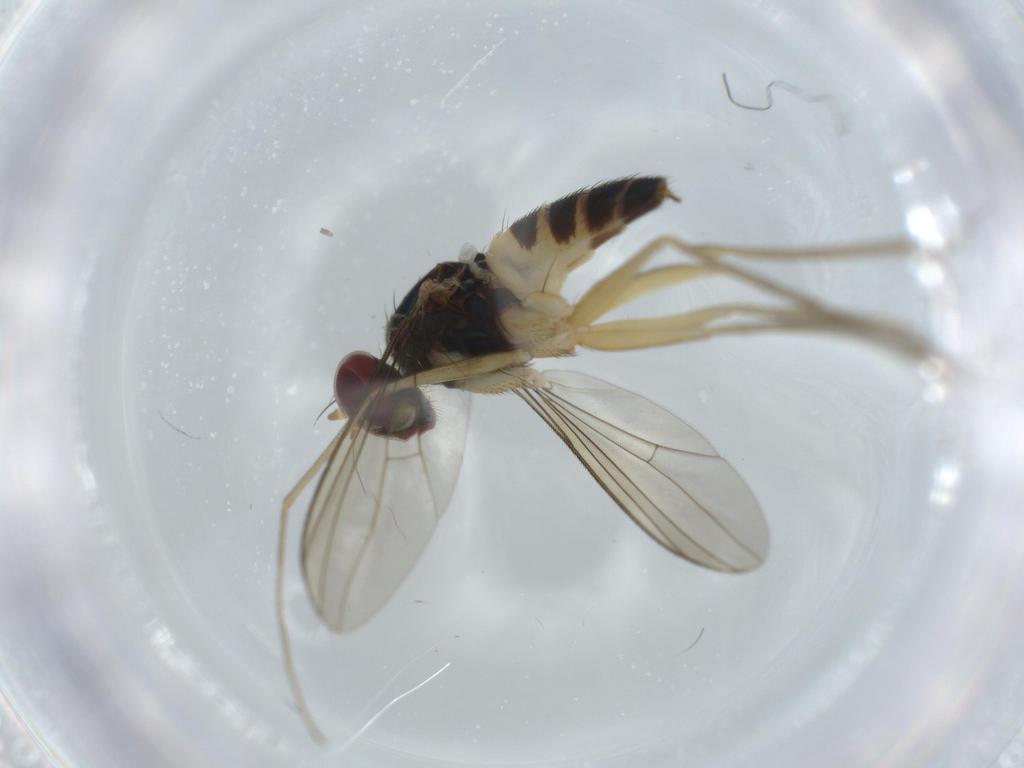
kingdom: Animalia
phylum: Arthropoda
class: Insecta
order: Diptera
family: Dolichopodidae
